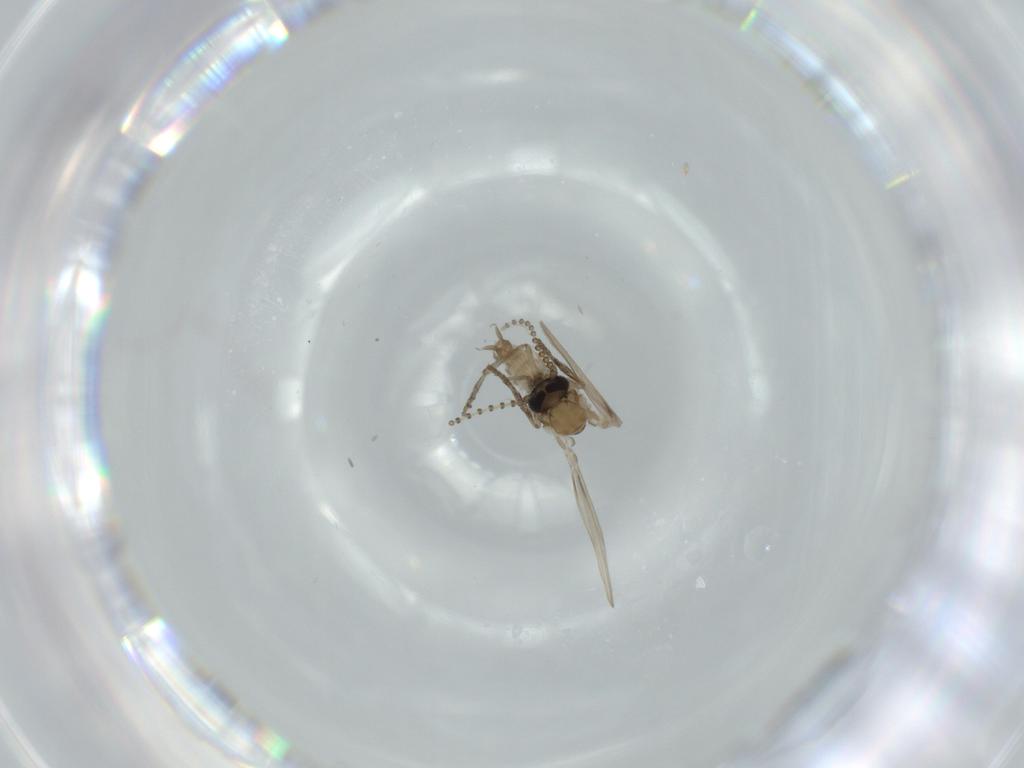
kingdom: Animalia
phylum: Arthropoda
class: Insecta
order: Diptera
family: Psychodidae
